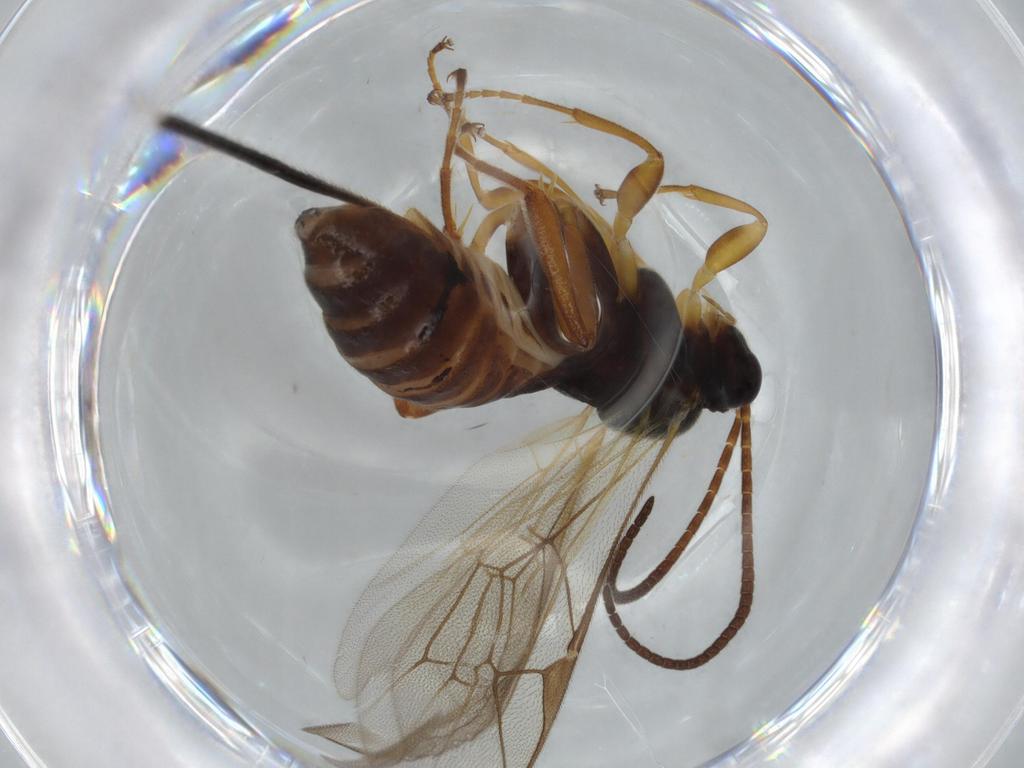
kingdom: Animalia
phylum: Arthropoda
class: Insecta
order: Hymenoptera
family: Ichneumonidae
